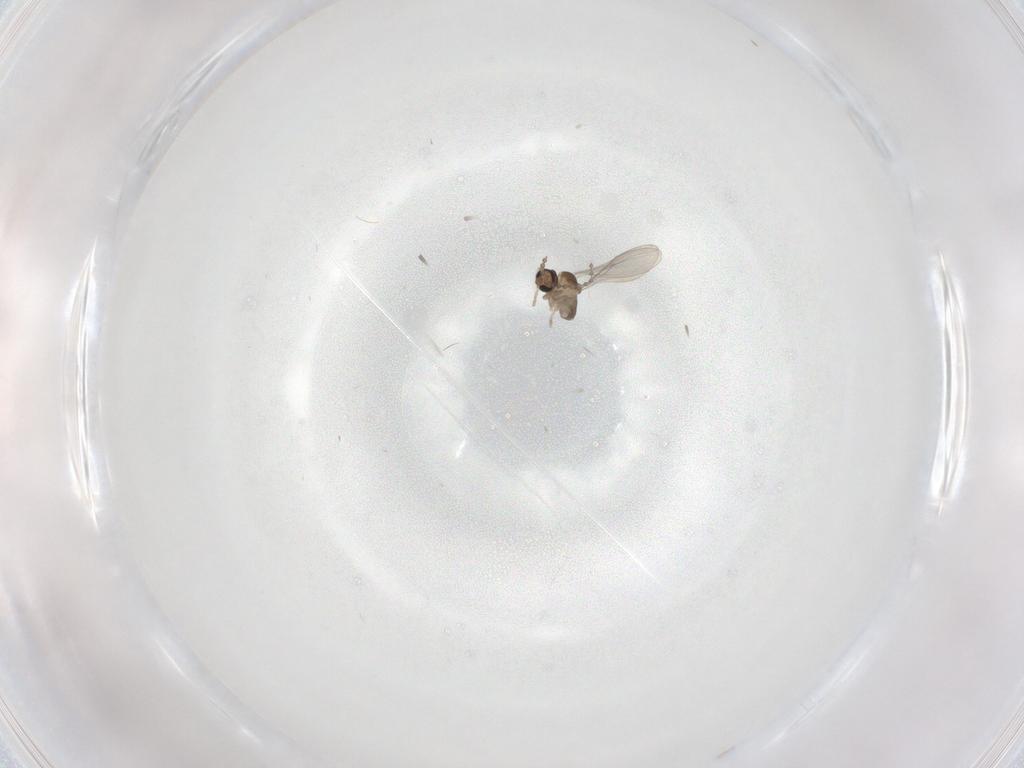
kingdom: Animalia
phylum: Arthropoda
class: Insecta
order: Diptera
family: Cecidomyiidae
